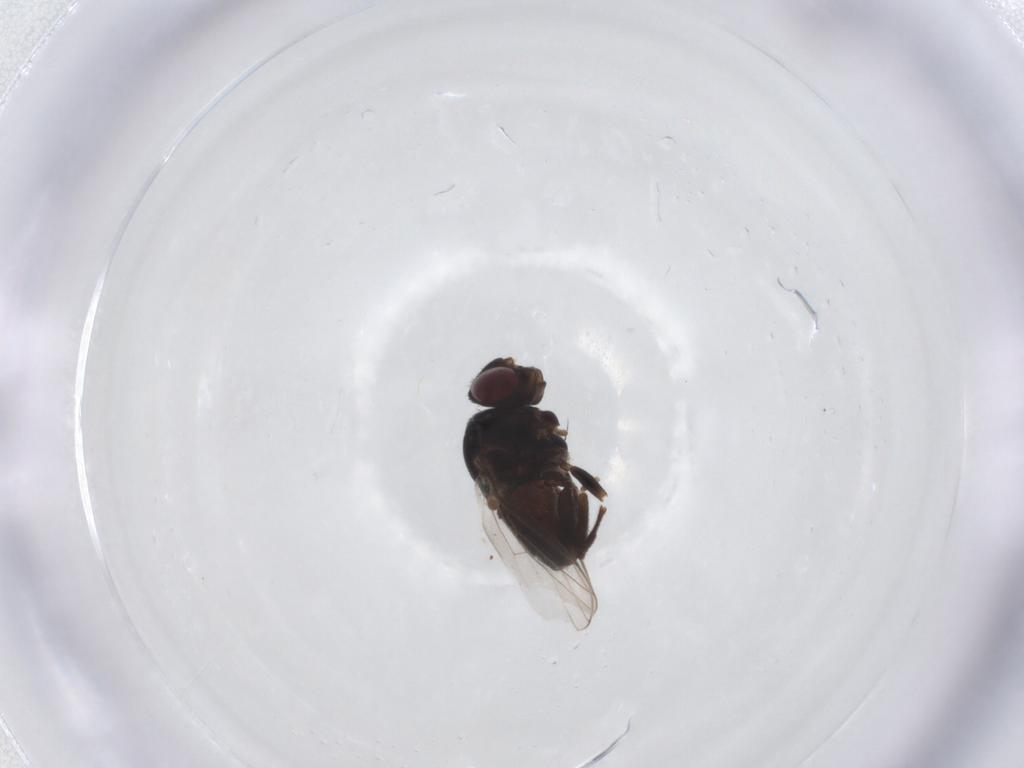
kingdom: Animalia
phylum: Arthropoda
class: Insecta
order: Diptera
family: Chloropidae
